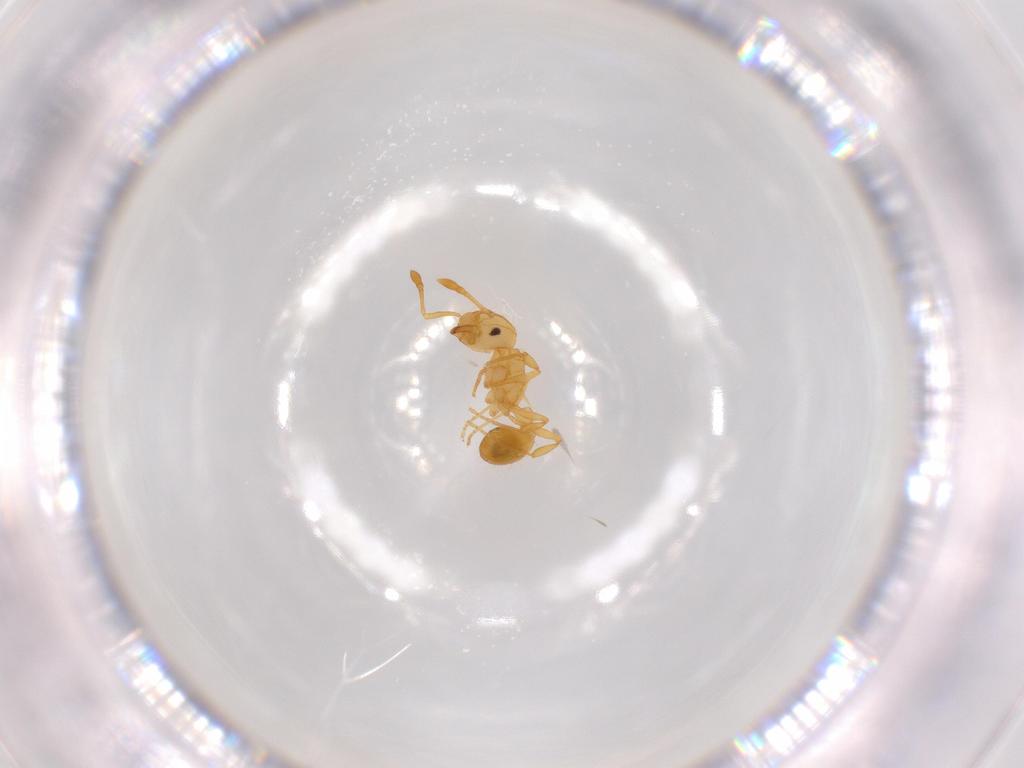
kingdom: Animalia
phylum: Arthropoda
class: Insecta
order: Hymenoptera
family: Formicidae
